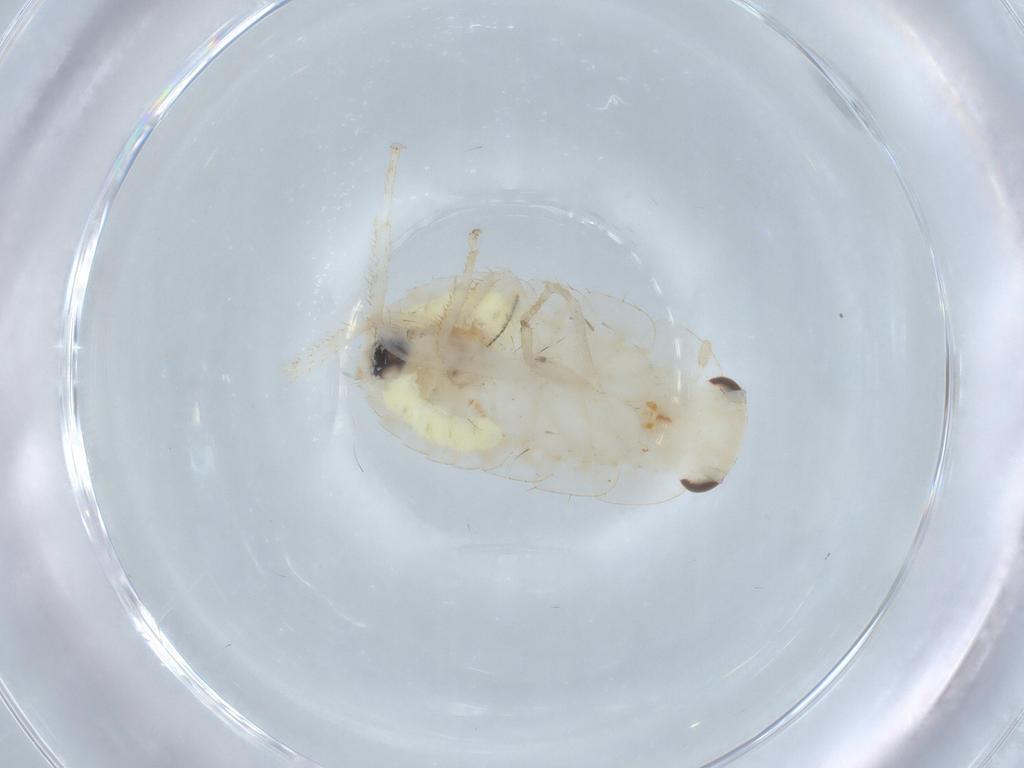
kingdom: Animalia
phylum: Arthropoda
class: Insecta
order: Blattodea
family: Ectobiidae
